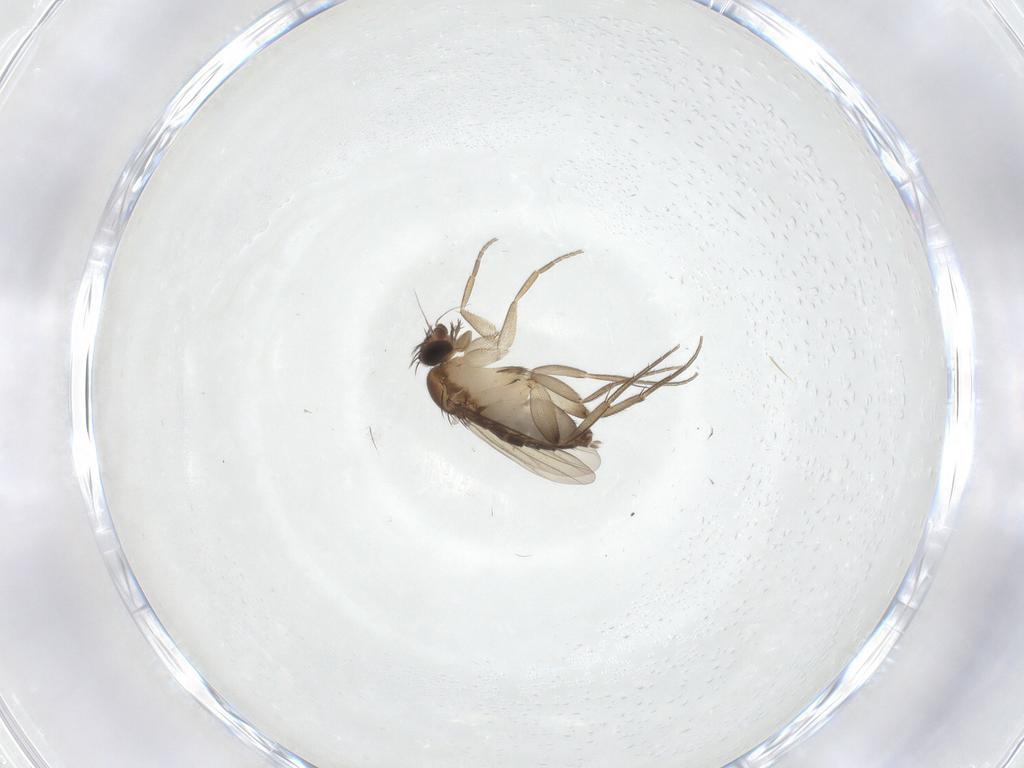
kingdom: Animalia
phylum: Arthropoda
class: Insecta
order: Diptera
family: Phoridae
